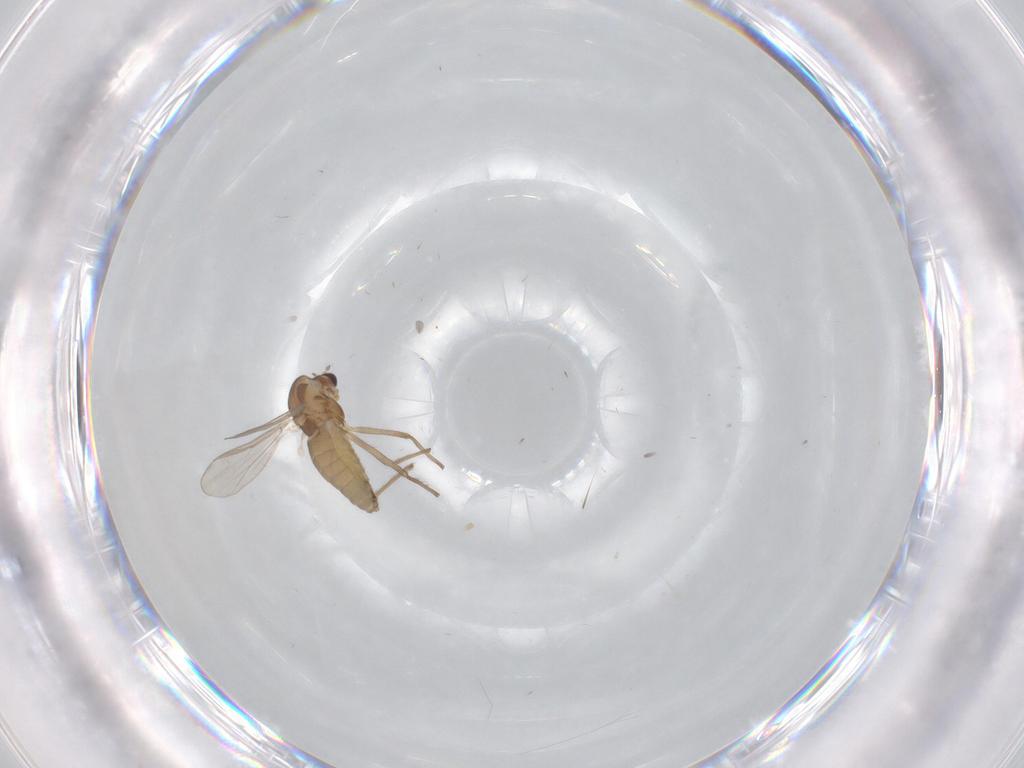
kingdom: Animalia
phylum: Arthropoda
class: Insecta
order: Diptera
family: Chironomidae
